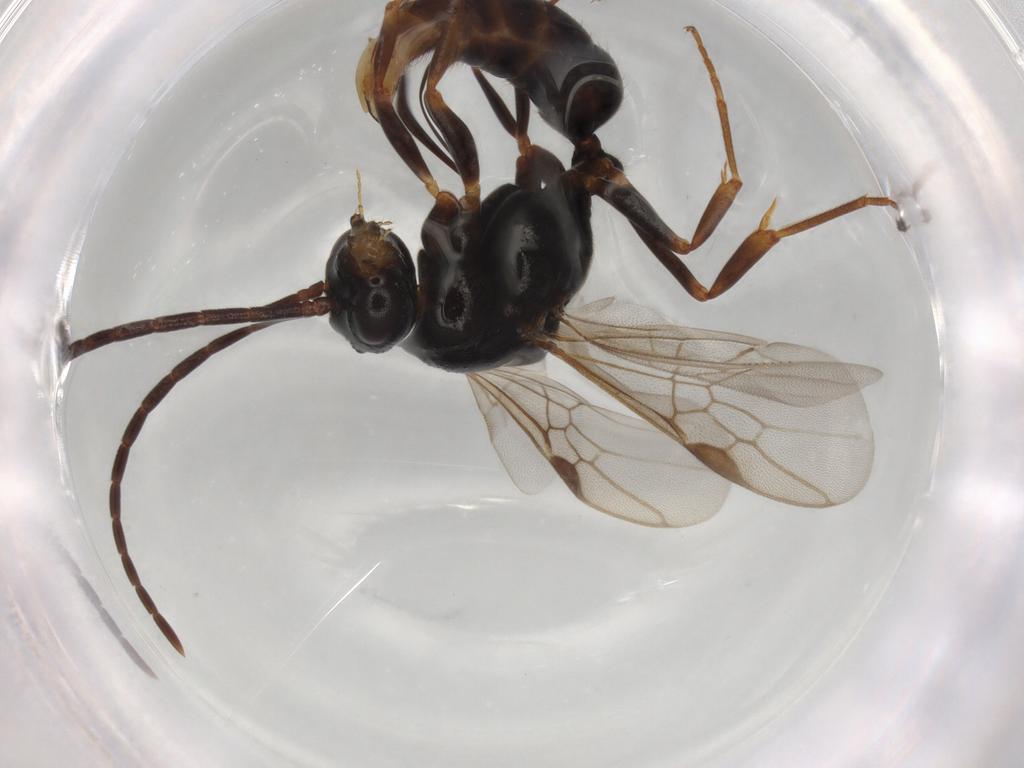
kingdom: Animalia
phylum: Arthropoda
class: Insecta
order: Hymenoptera
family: Formicidae
